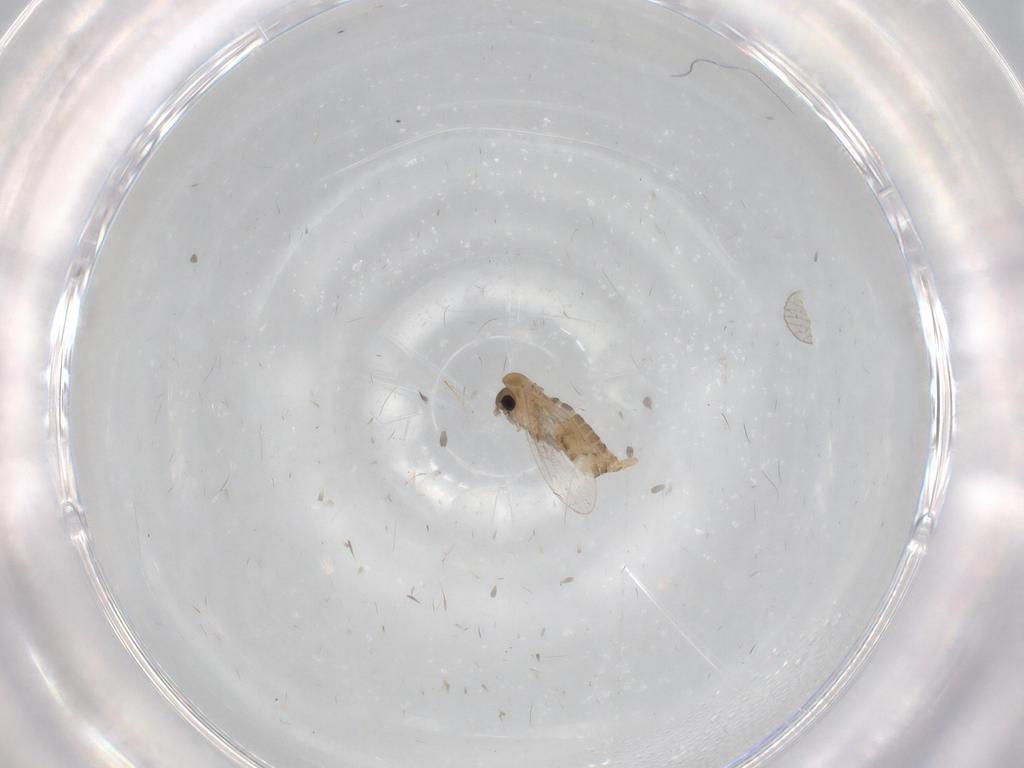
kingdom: Animalia
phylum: Arthropoda
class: Insecta
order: Diptera
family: Psychodidae
